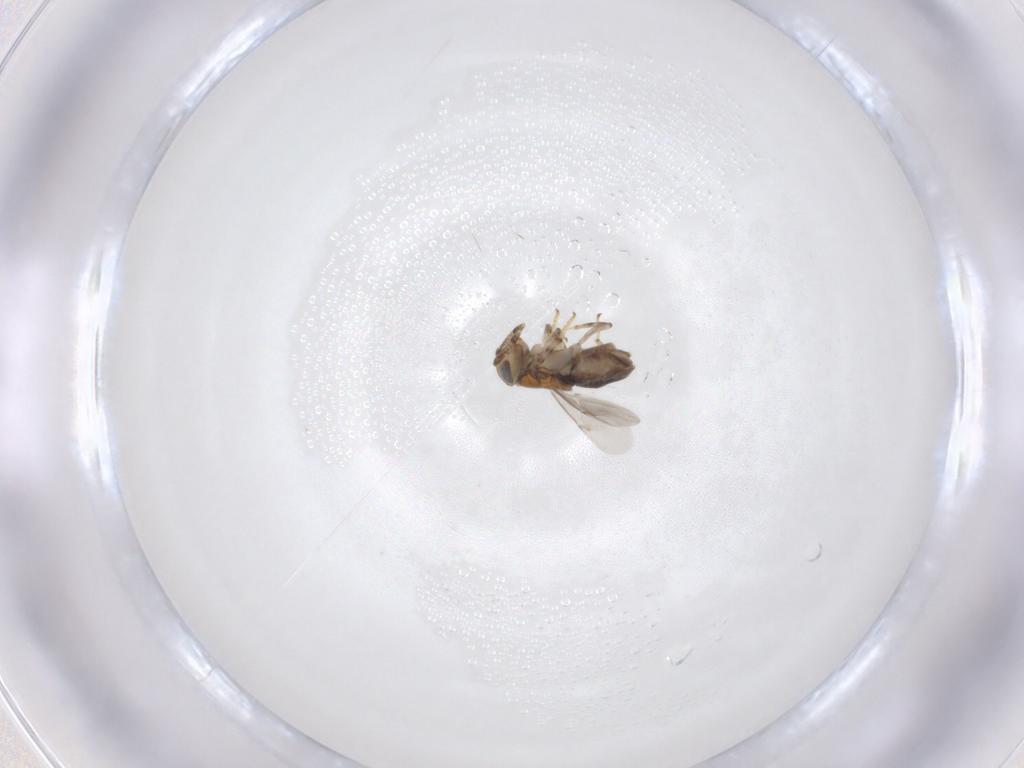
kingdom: Animalia
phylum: Arthropoda
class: Insecta
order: Hymenoptera
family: Encyrtidae
